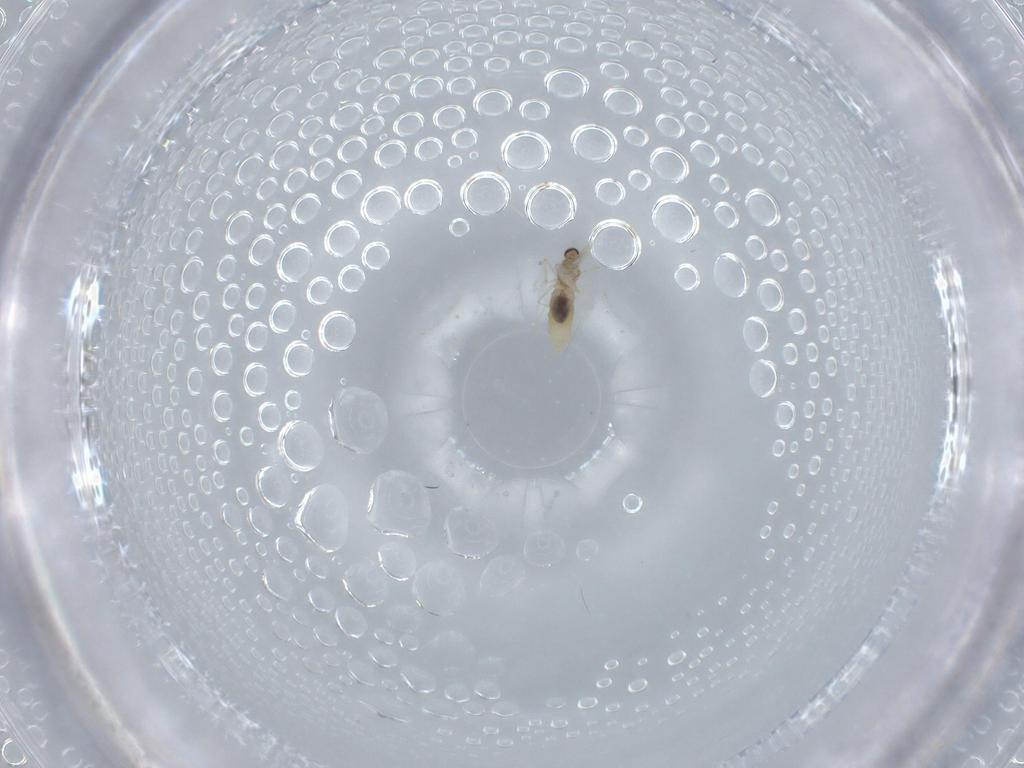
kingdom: Animalia
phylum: Arthropoda
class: Insecta
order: Diptera
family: Cecidomyiidae
